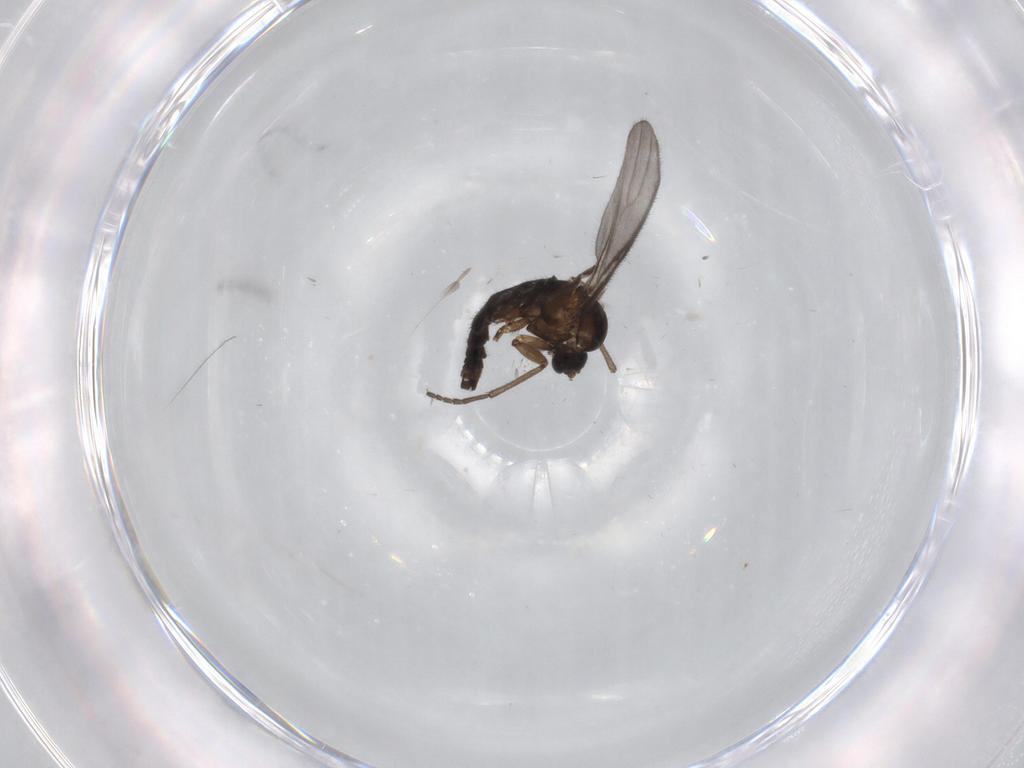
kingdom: Animalia
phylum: Arthropoda
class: Insecta
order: Diptera
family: Sciaridae
